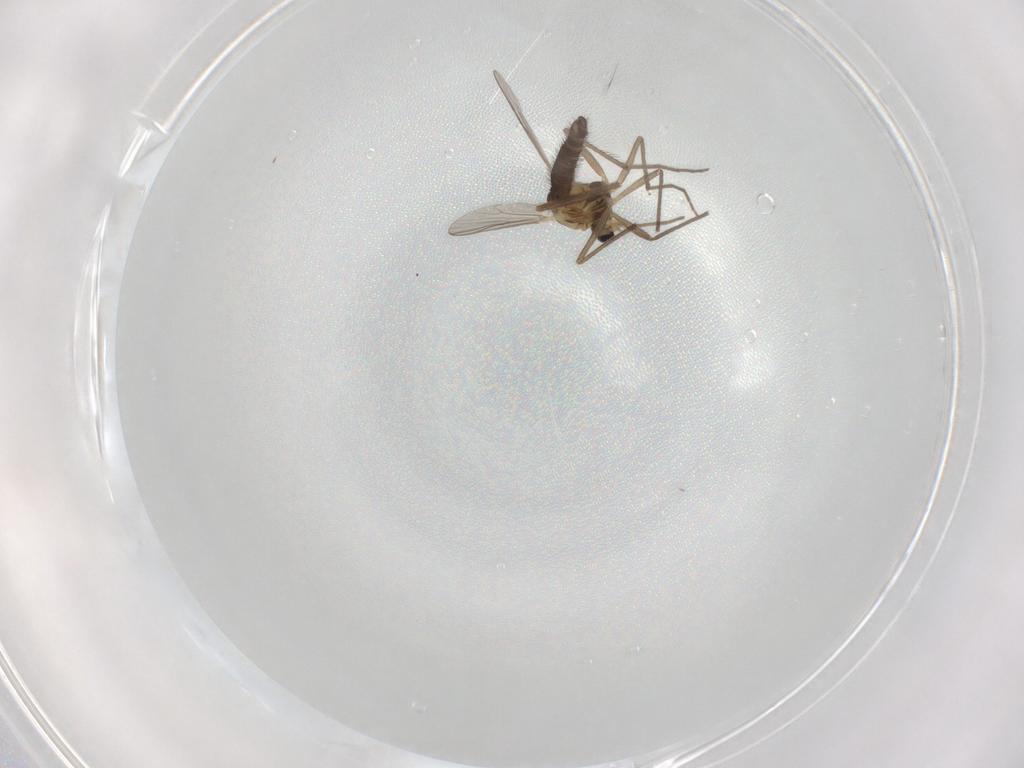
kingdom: Animalia
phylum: Arthropoda
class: Insecta
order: Diptera
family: Chironomidae
